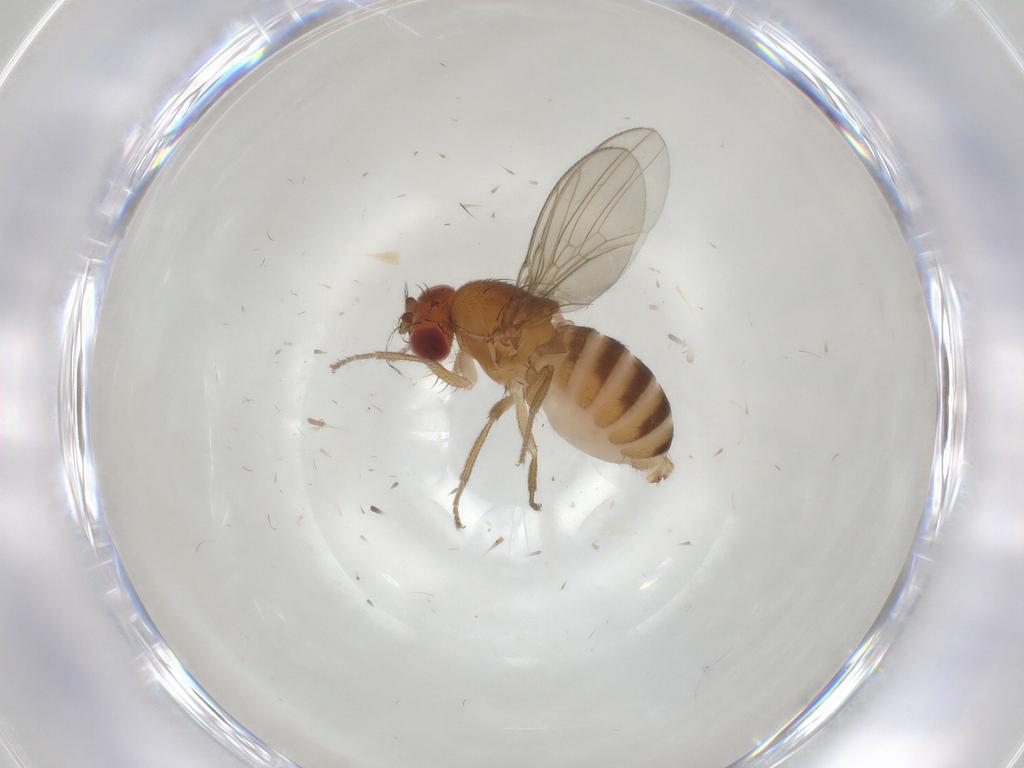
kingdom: Animalia
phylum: Arthropoda
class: Insecta
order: Diptera
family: Drosophilidae
